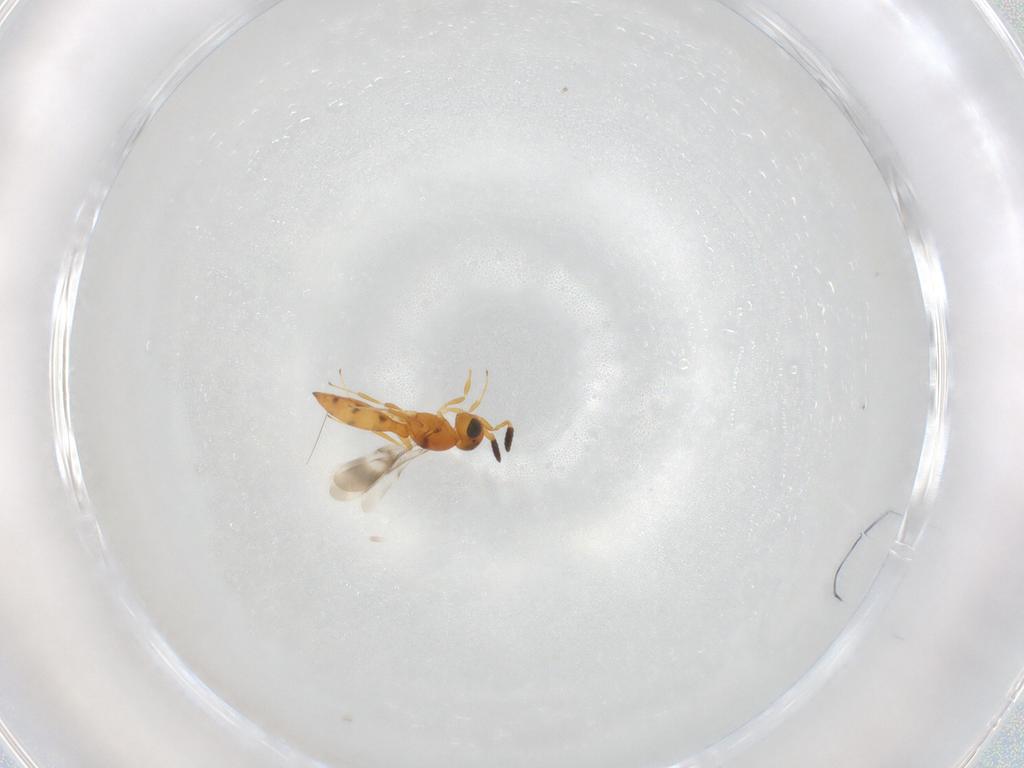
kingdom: Animalia
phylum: Arthropoda
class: Insecta
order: Hymenoptera
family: Scelionidae
